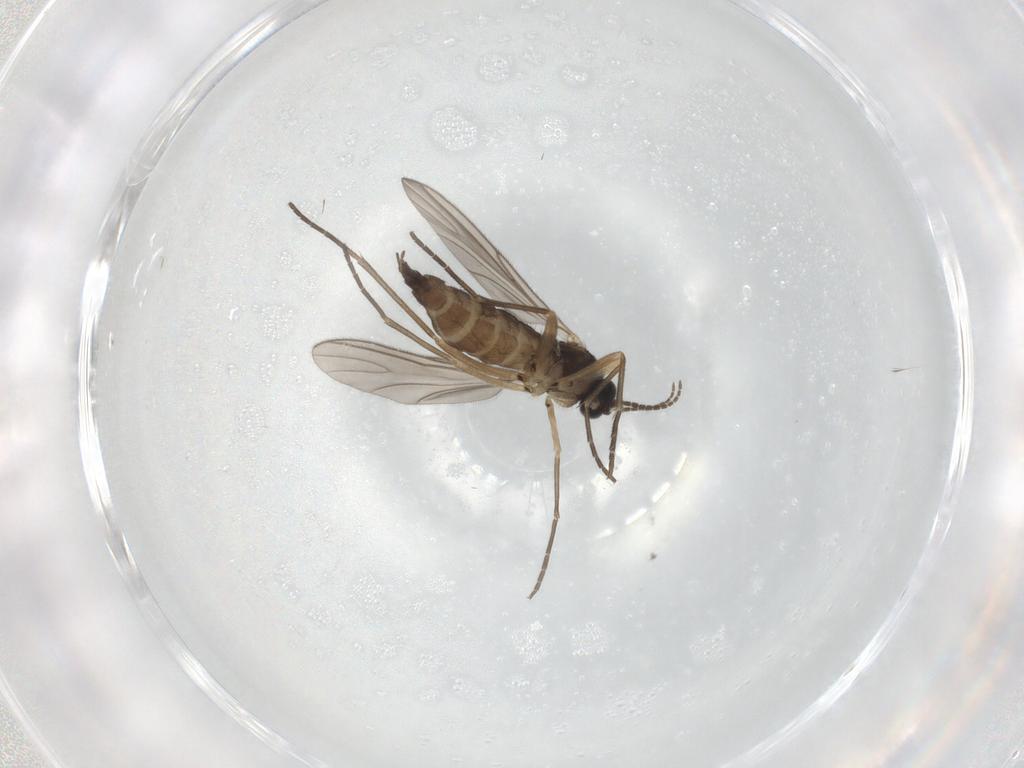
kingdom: Animalia
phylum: Arthropoda
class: Insecta
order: Diptera
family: Sciaridae
